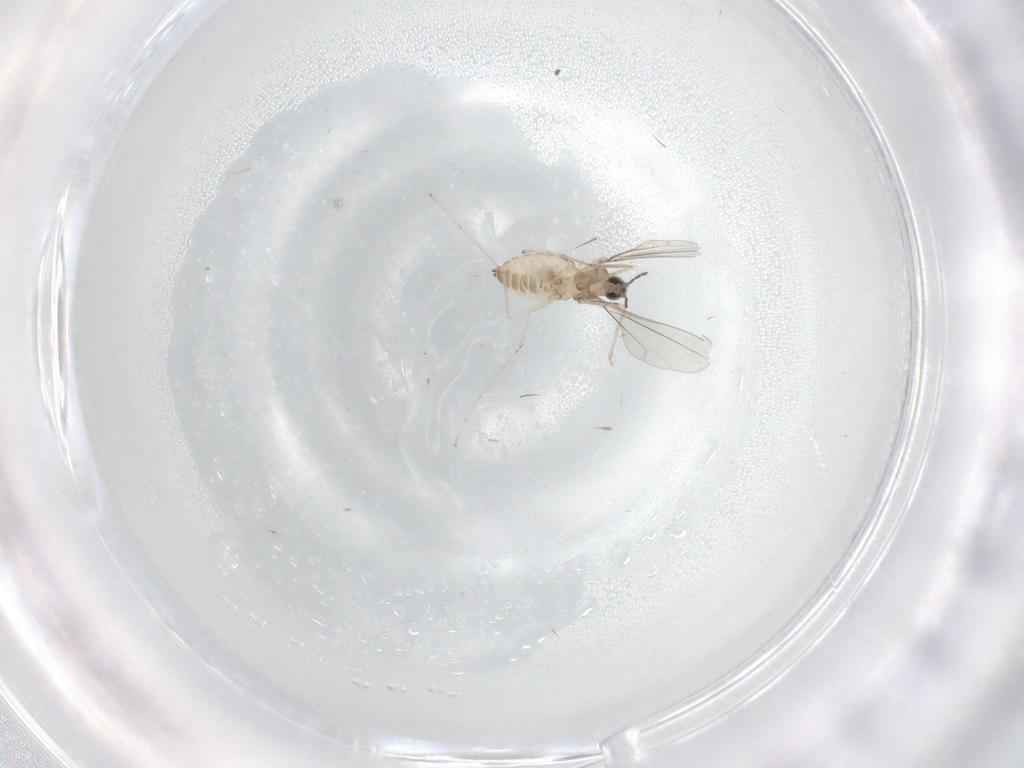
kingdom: Animalia
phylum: Arthropoda
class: Insecta
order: Diptera
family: Cecidomyiidae
